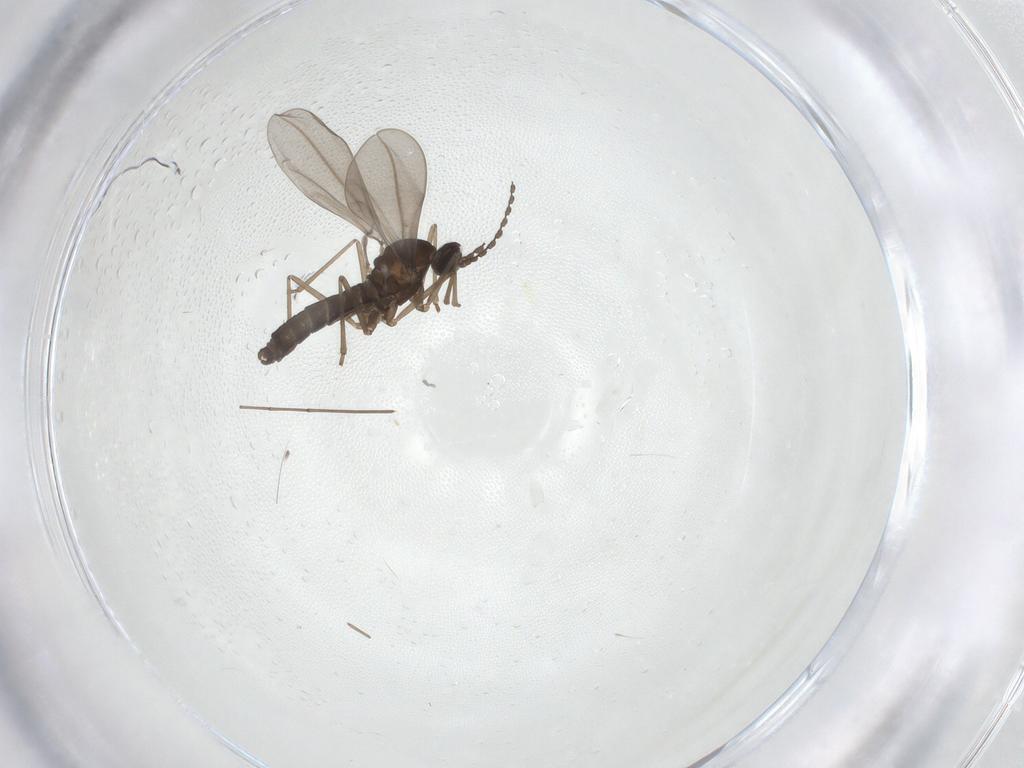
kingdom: Animalia
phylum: Arthropoda
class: Insecta
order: Diptera
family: Cecidomyiidae
